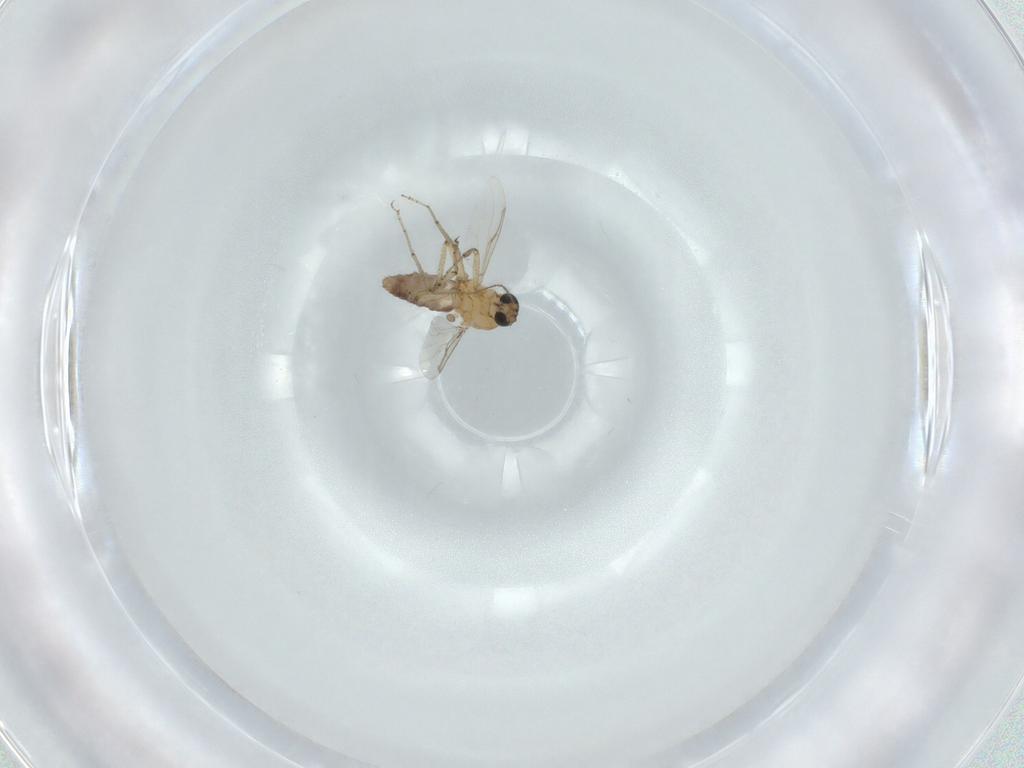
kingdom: Animalia
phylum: Arthropoda
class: Insecta
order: Diptera
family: Ceratopogonidae
